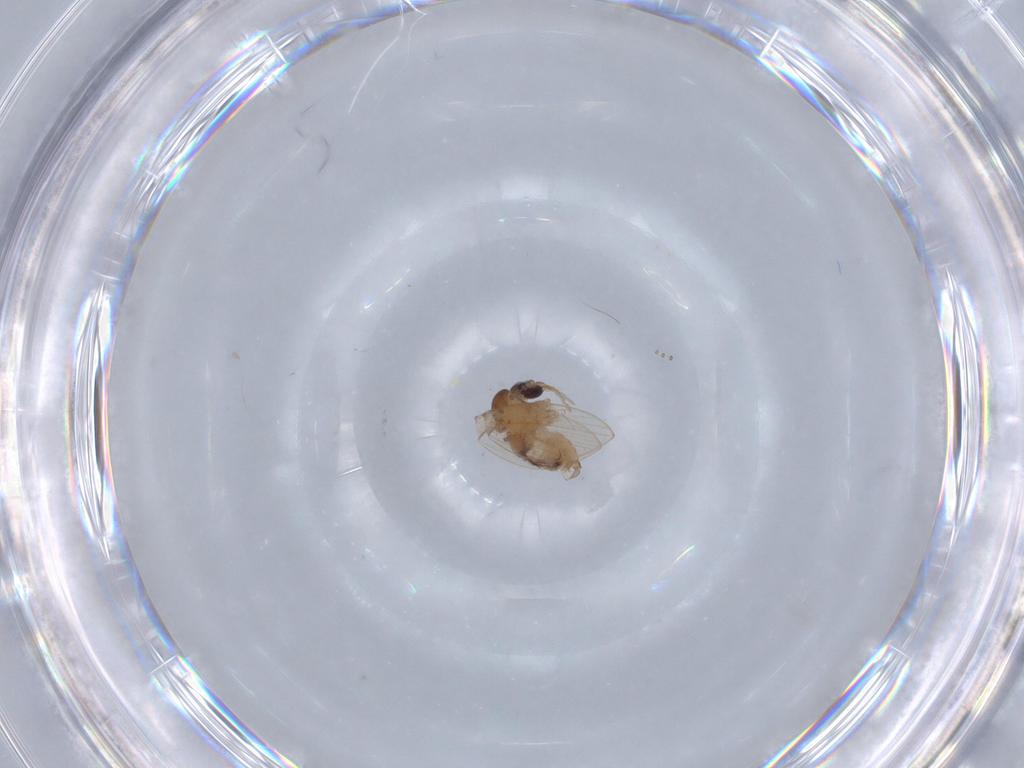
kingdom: Animalia
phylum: Arthropoda
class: Insecta
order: Diptera
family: Psychodidae
